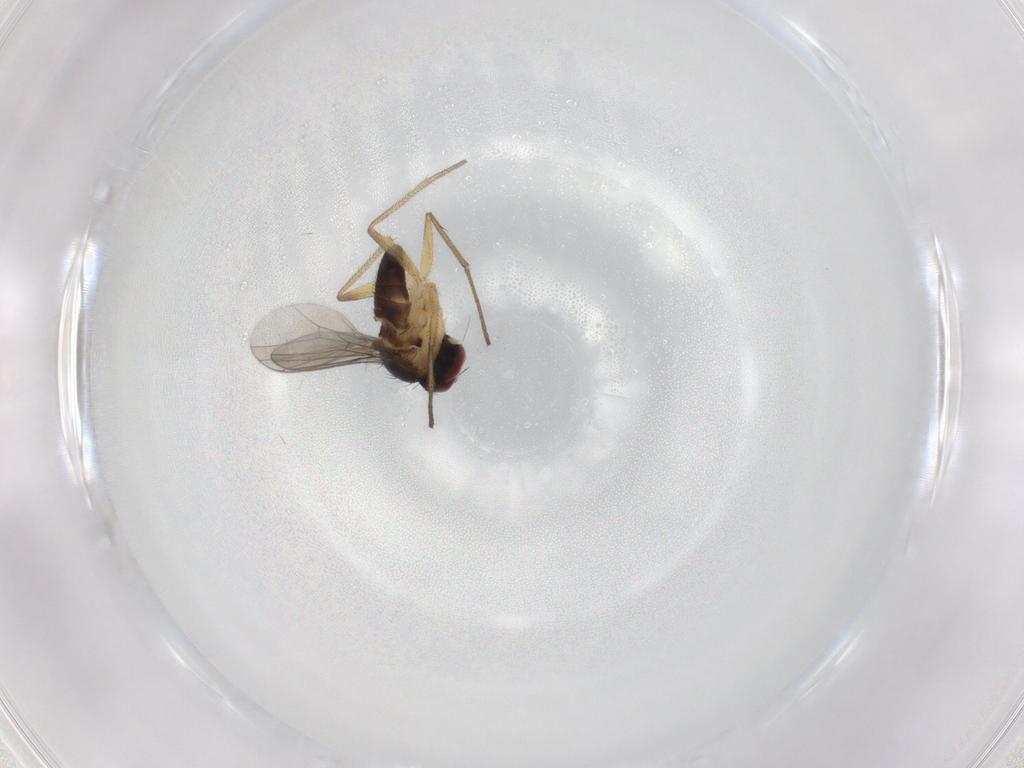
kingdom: Animalia
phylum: Arthropoda
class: Insecta
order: Diptera
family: Dolichopodidae
